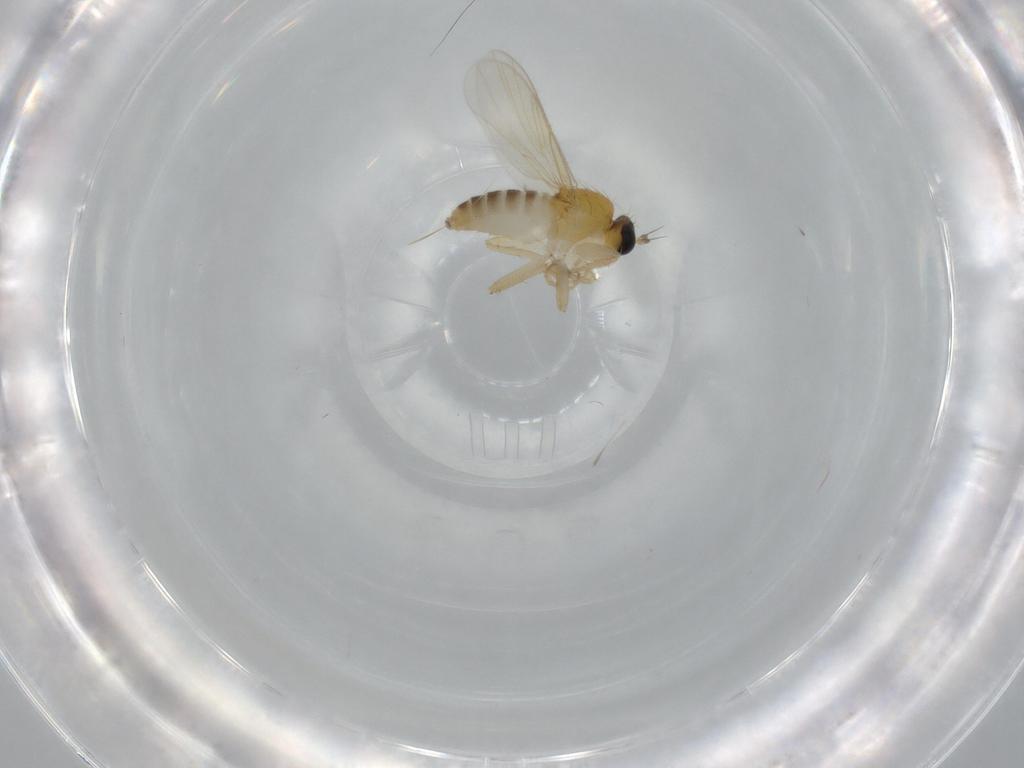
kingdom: Animalia
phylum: Arthropoda
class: Insecta
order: Diptera
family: Hybotidae
